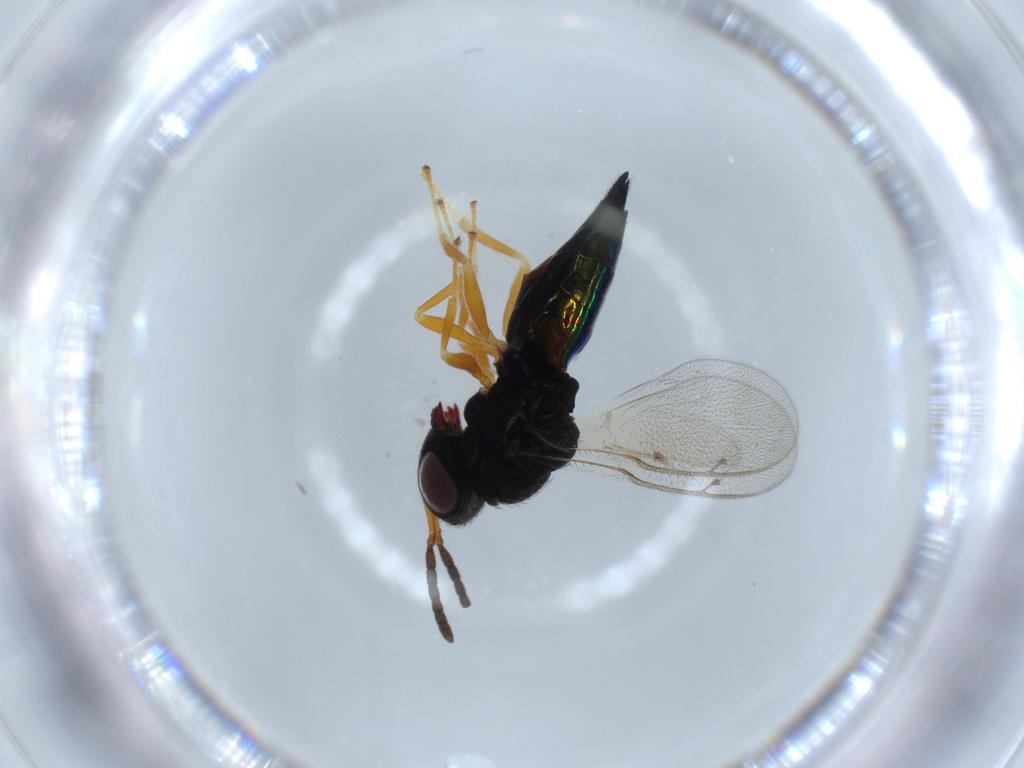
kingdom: Animalia
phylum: Arthropoda
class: Insecta
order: Hymenoptera
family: Pteromalidae
